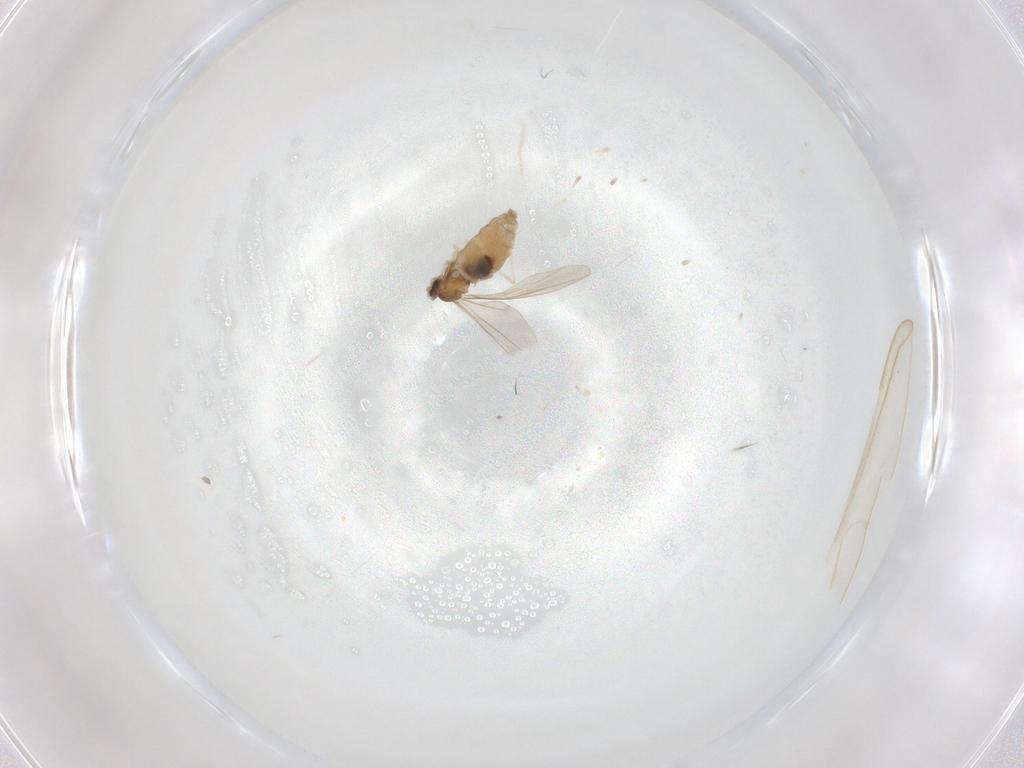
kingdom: Animalia
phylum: Arthropoda
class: Insecta
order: Diptera
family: Cecidomyiidae
